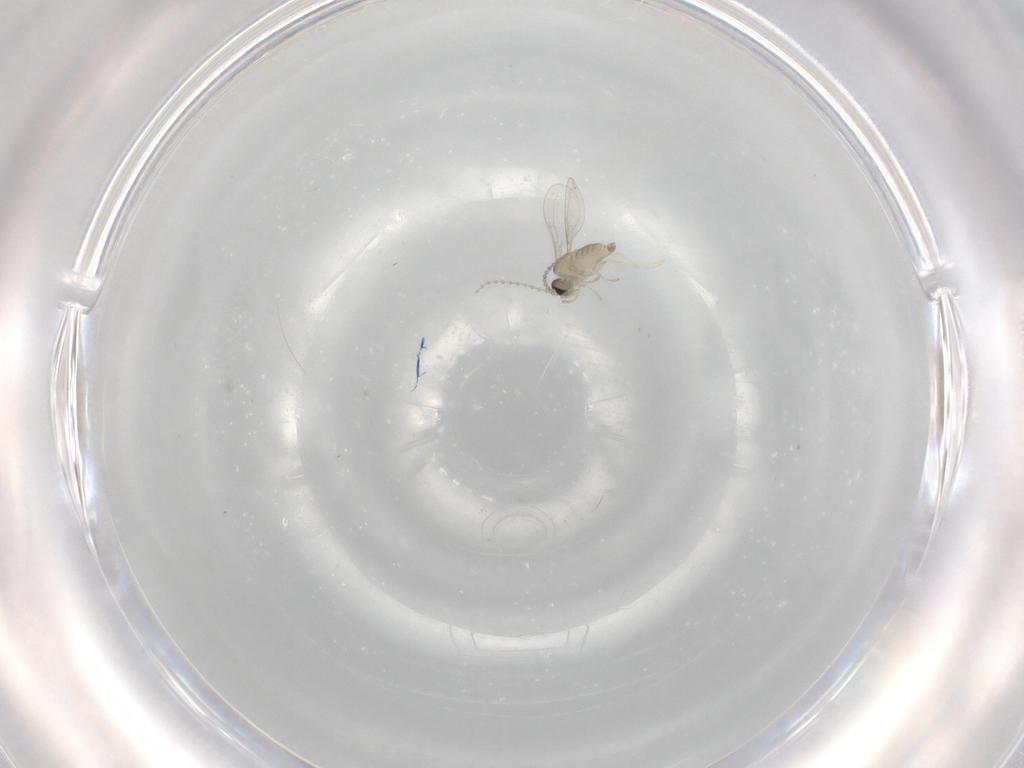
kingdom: Animalia
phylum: Arthropoda
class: Insecta
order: Diptera
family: Cecidomyiidae
